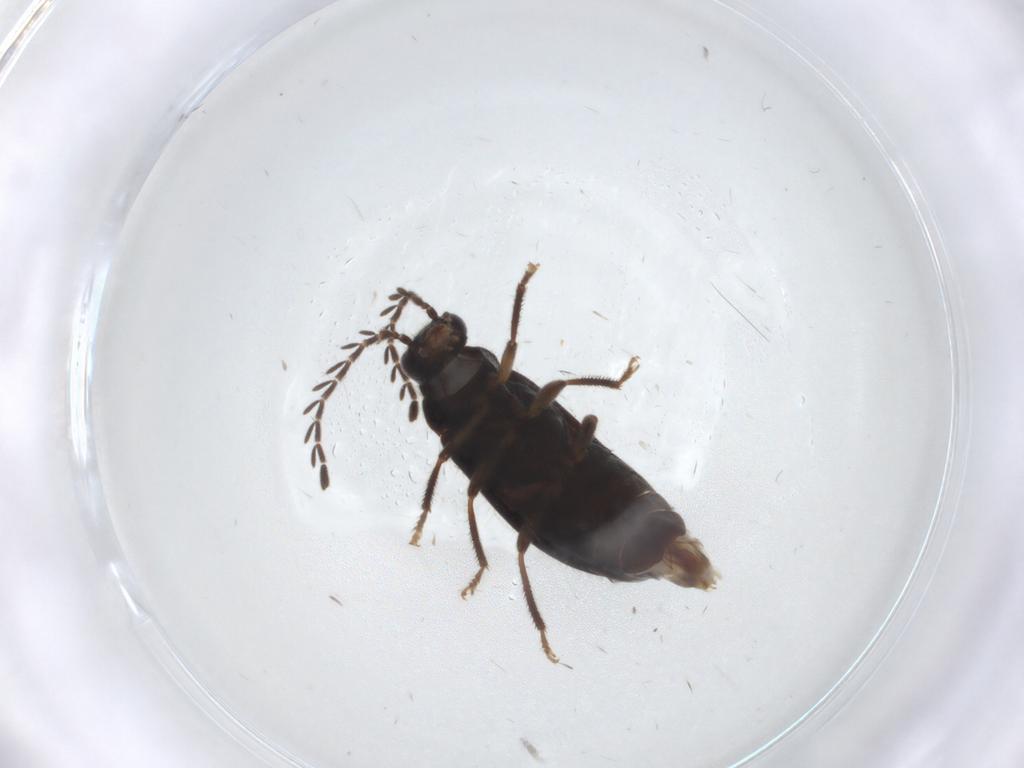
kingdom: Animalia
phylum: Arthropoda
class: Insecta
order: Coleoptera
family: Ptilodactylidae
